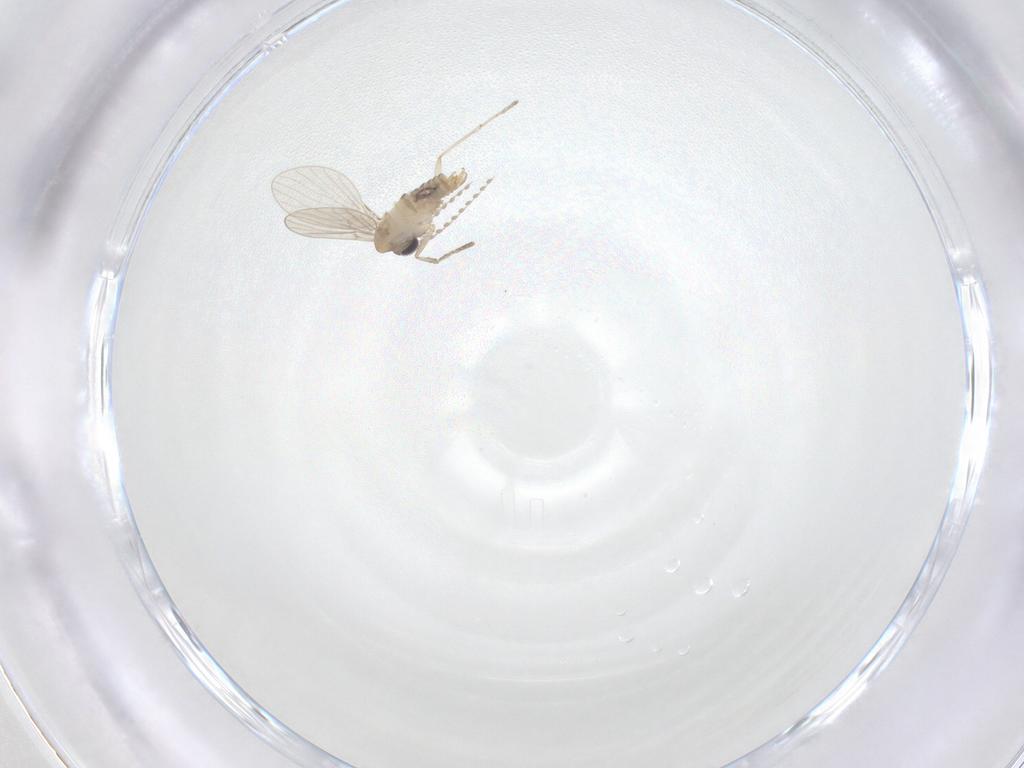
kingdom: Animalia
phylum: Arthropoda
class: Insecta
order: Diptera
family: Psychodidae
